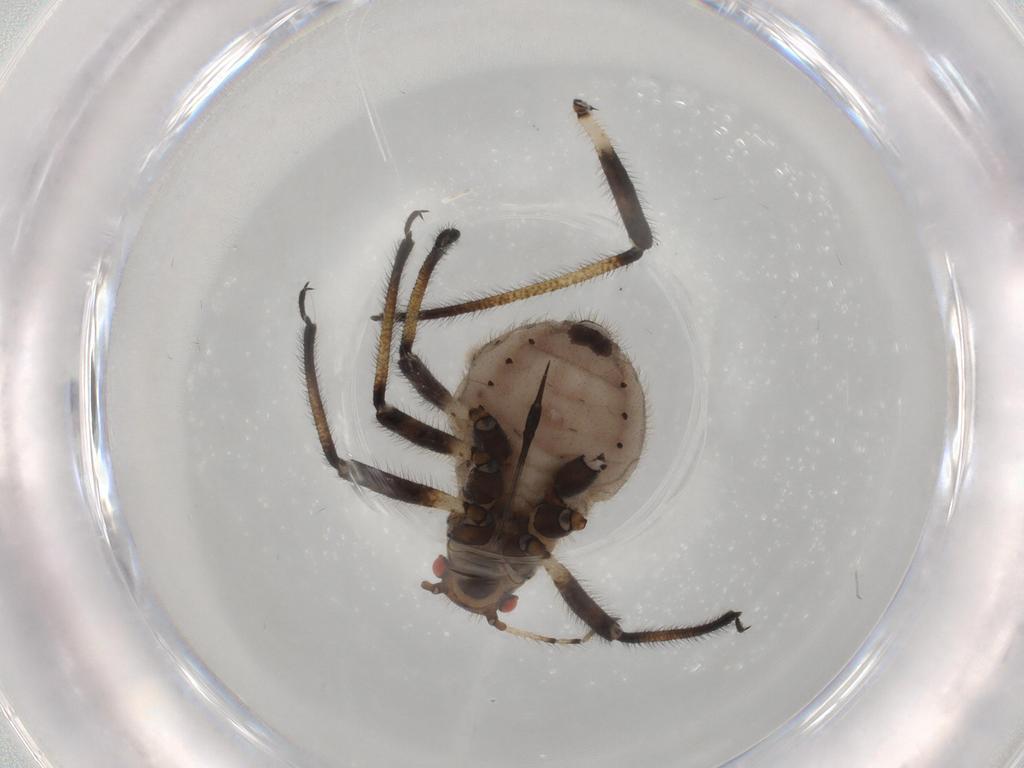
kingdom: Animalia
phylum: Arthropoda
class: Insecta
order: Hemiptera
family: Aphididae
